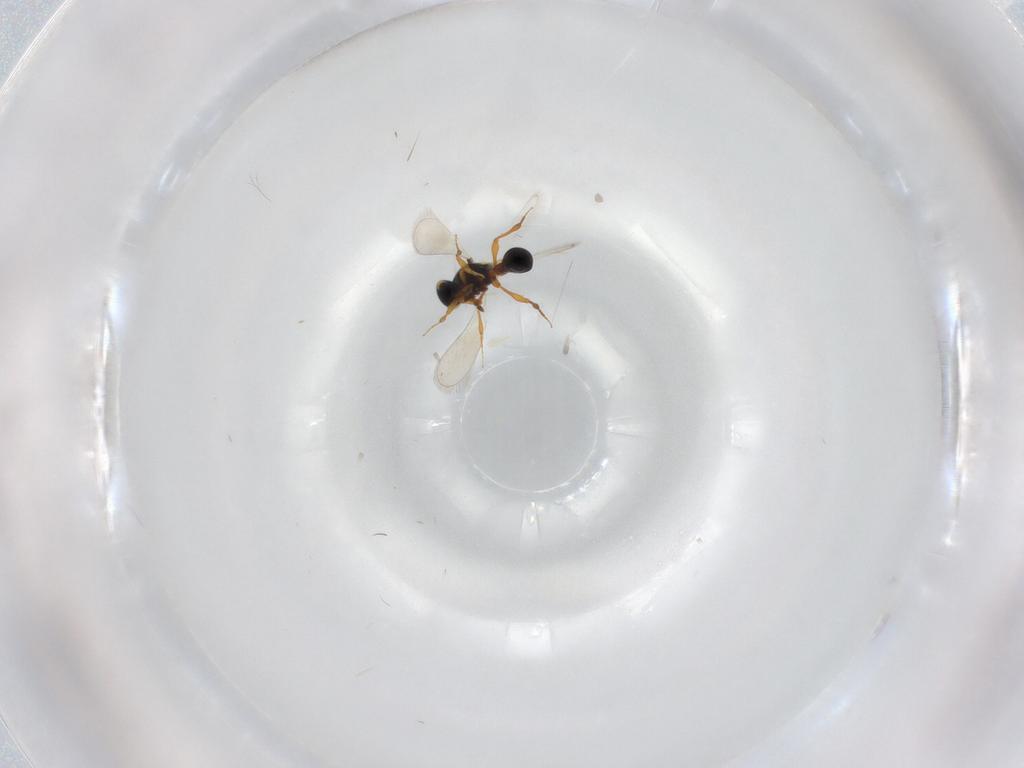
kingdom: Animalia
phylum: Arthropoda
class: Insecta
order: Hymenoptera
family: Platygastridae
